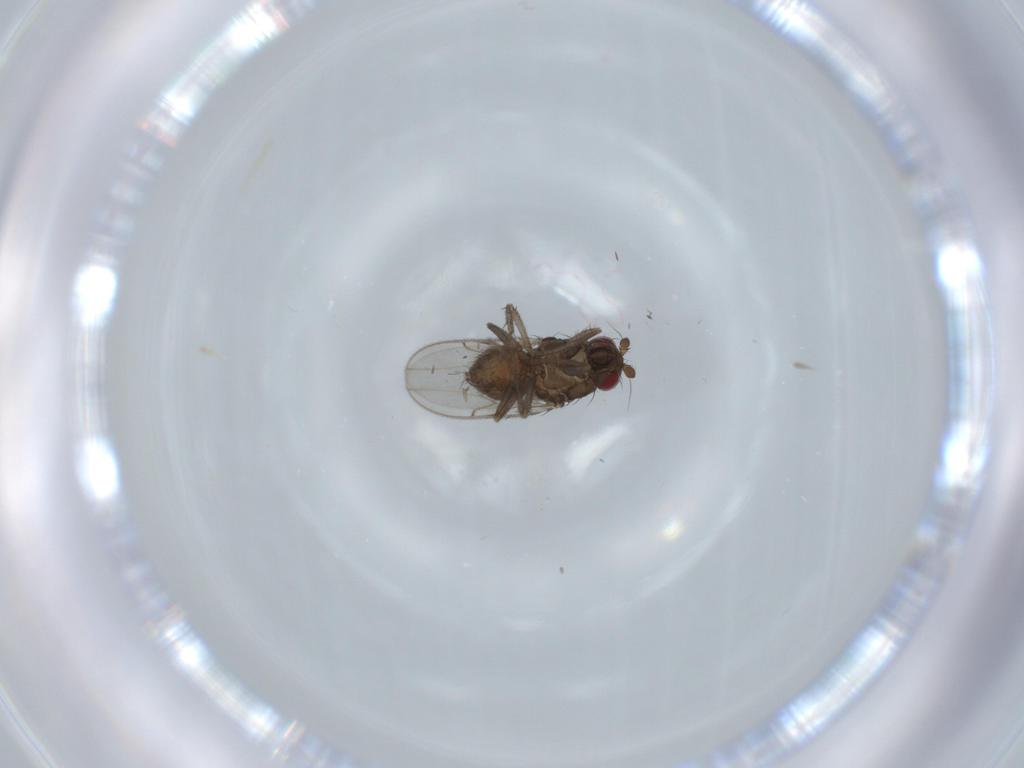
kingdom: Animalia
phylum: Arthropoda
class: Insecta
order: Diptera
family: Sphaeroceridae
